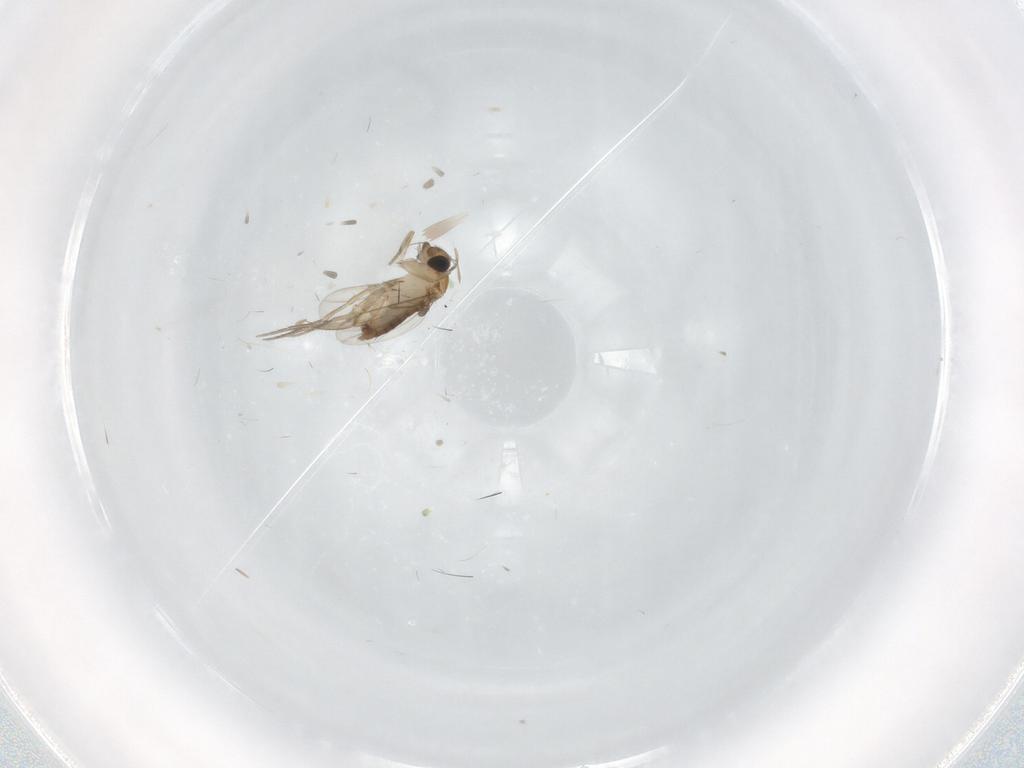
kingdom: Animalia
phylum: Arthropoda
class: Insecta
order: Diptera
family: Phoridae
